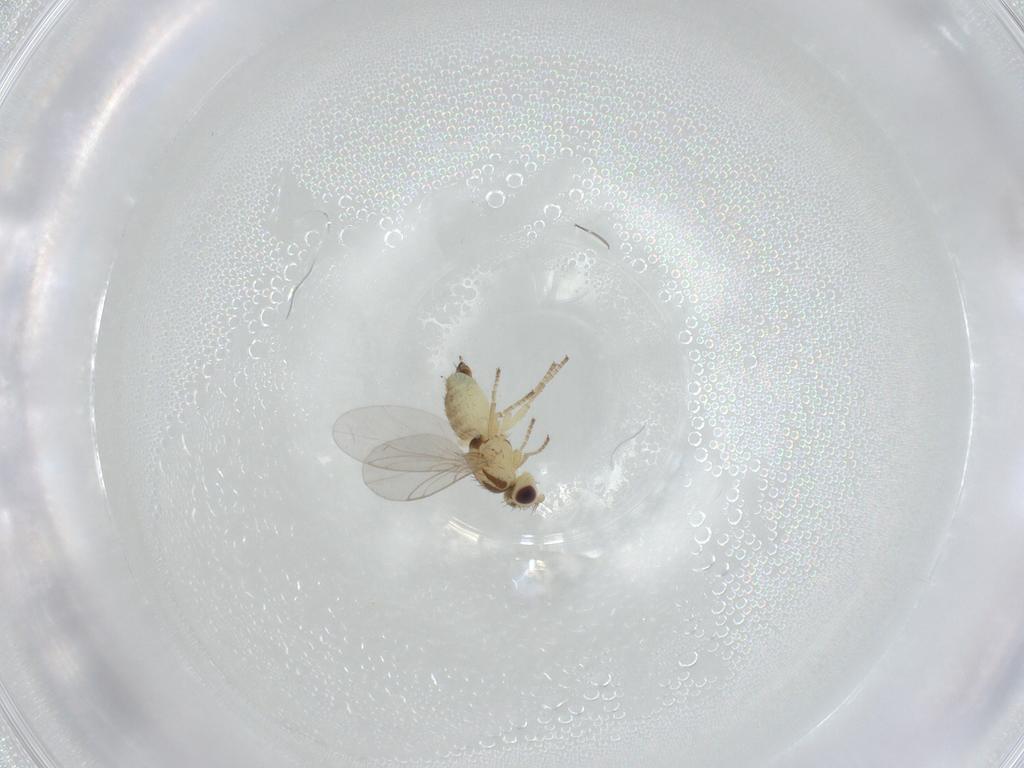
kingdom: Animalia
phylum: Arthropoda
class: Insecta
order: Diptera
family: Agromyzidae
